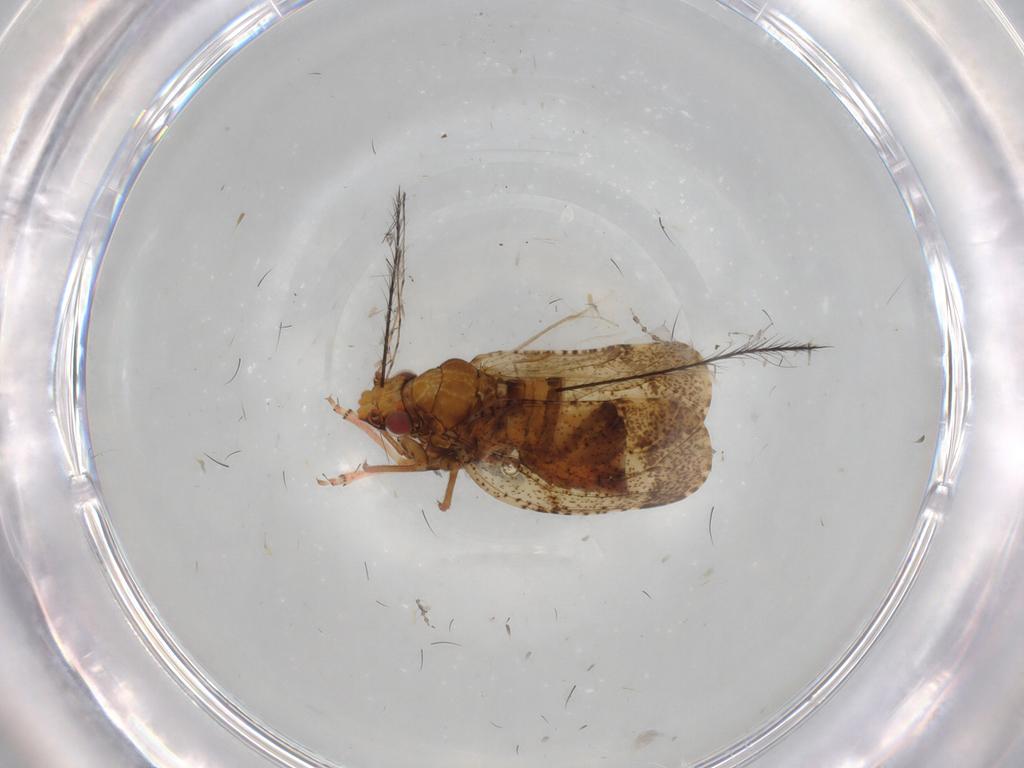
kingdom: Animalia
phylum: Arthropoda
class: Insecta
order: Hemiptera
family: Psyllidae
